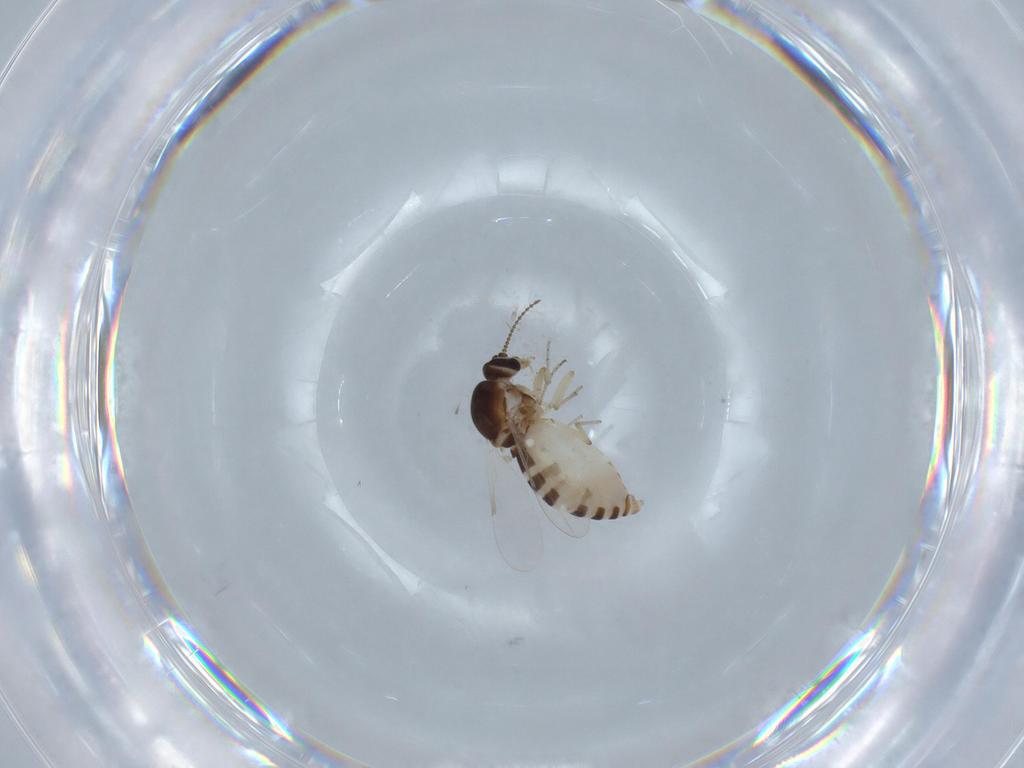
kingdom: Animalia
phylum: Arthropoda
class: Insecta
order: Diptera
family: Ceratopogonidae
